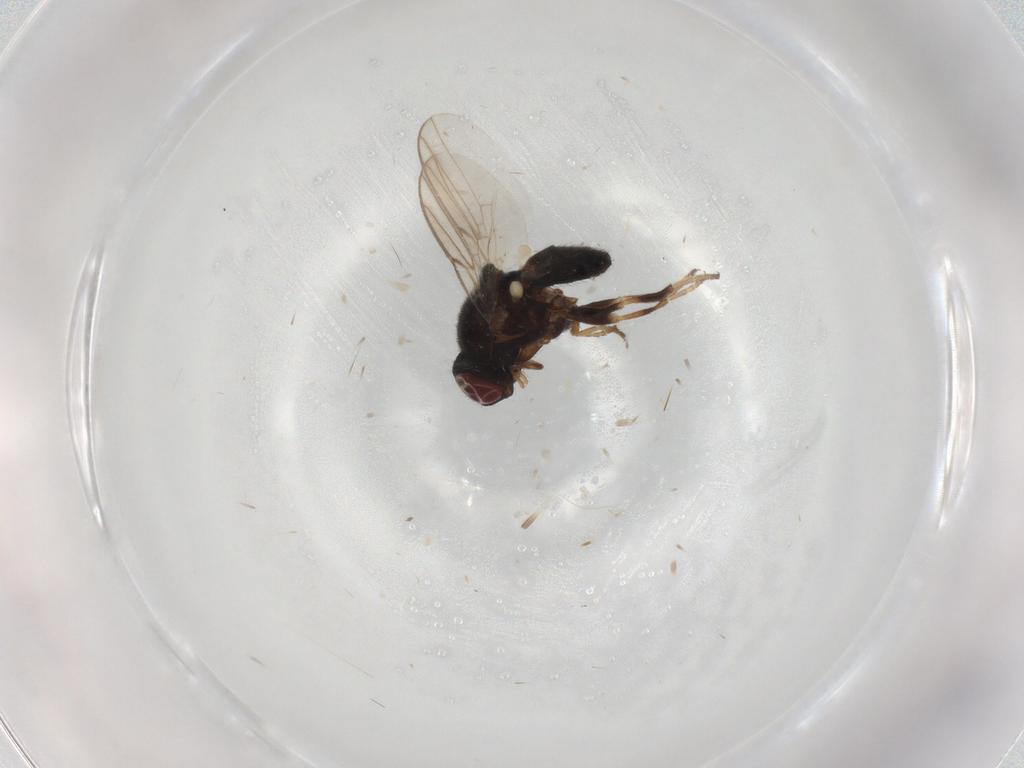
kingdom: Animalia
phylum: Arthropoda
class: Insecta
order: Diptera
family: Chloropidae
